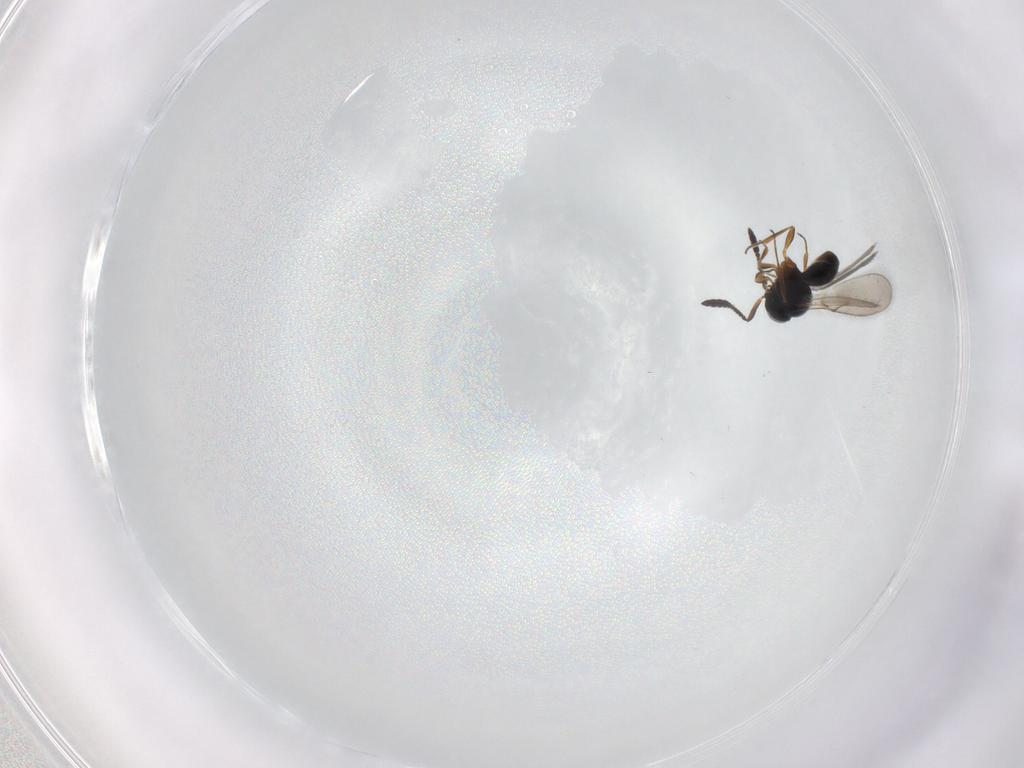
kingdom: Animalia
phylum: Arthropoda
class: Insecta
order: Hymenoptera
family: Scelionidae
